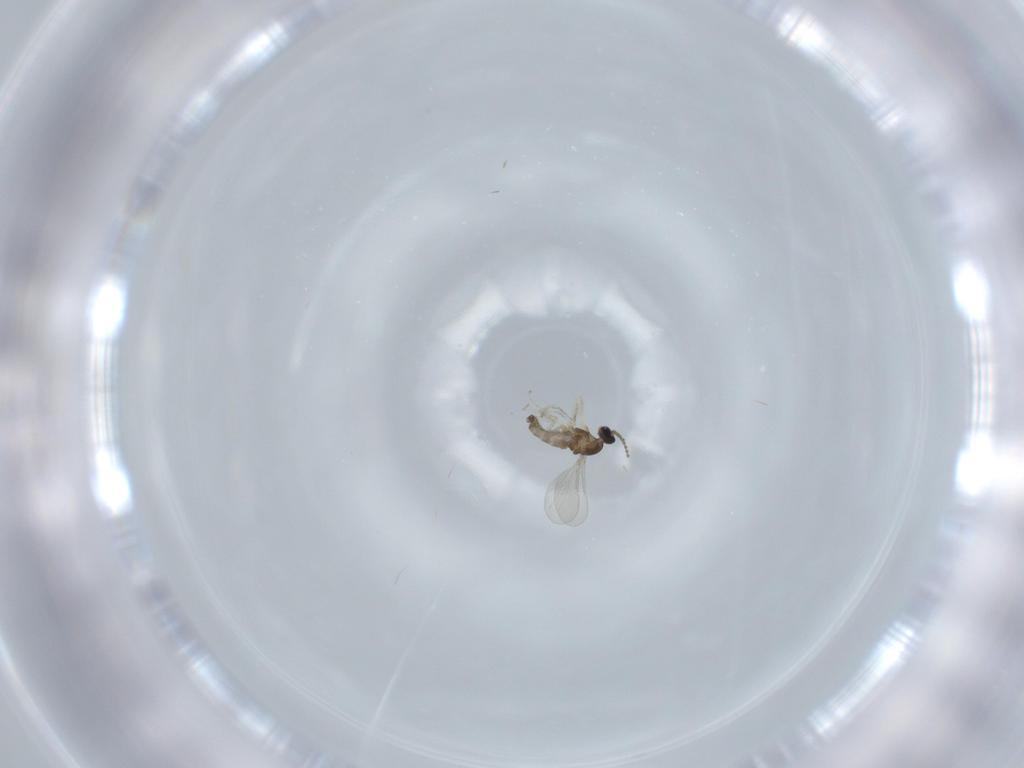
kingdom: Animalia
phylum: Arthropoda
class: Insecta
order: Diptera
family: Cecidomyiidae
